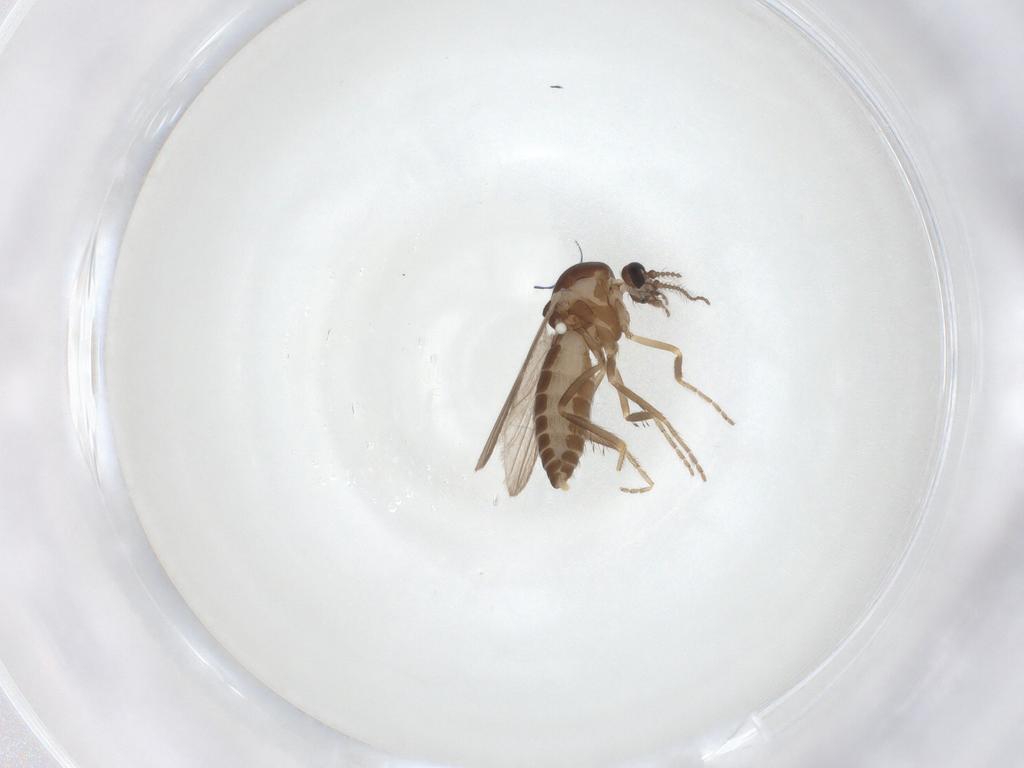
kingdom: Animalia
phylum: Arthropoda
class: Insecta
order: Diptera
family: Ceratopogonidae
